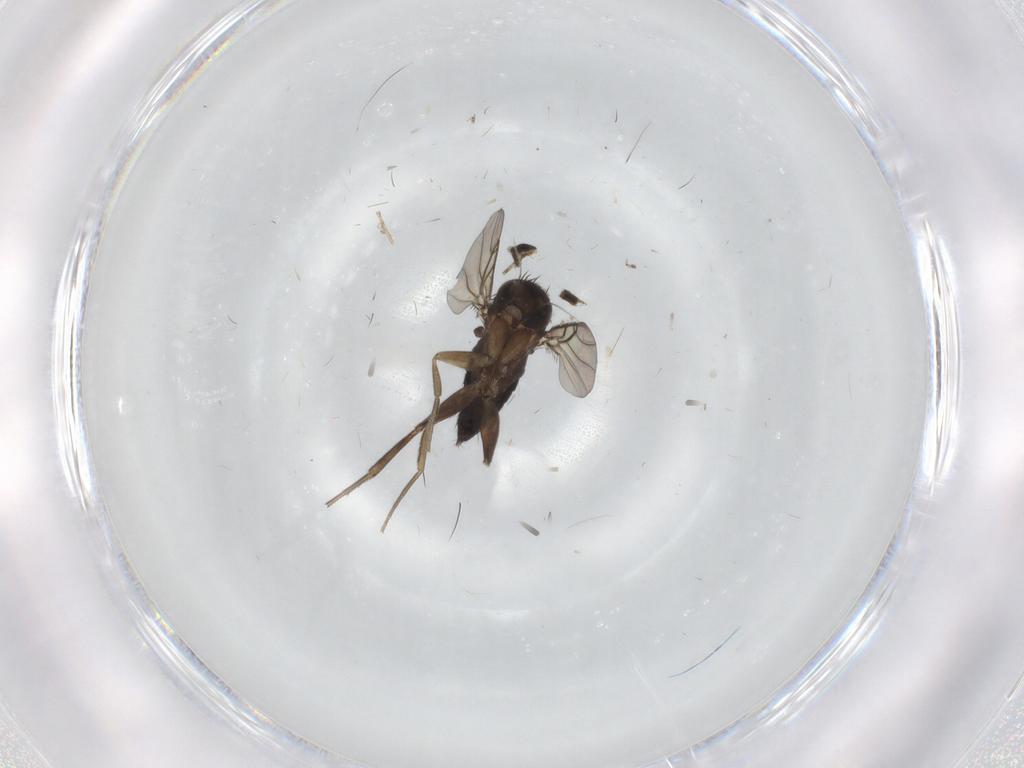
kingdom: Animalia
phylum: Arthropoda
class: Insecta
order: Diptera
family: Phoridae
